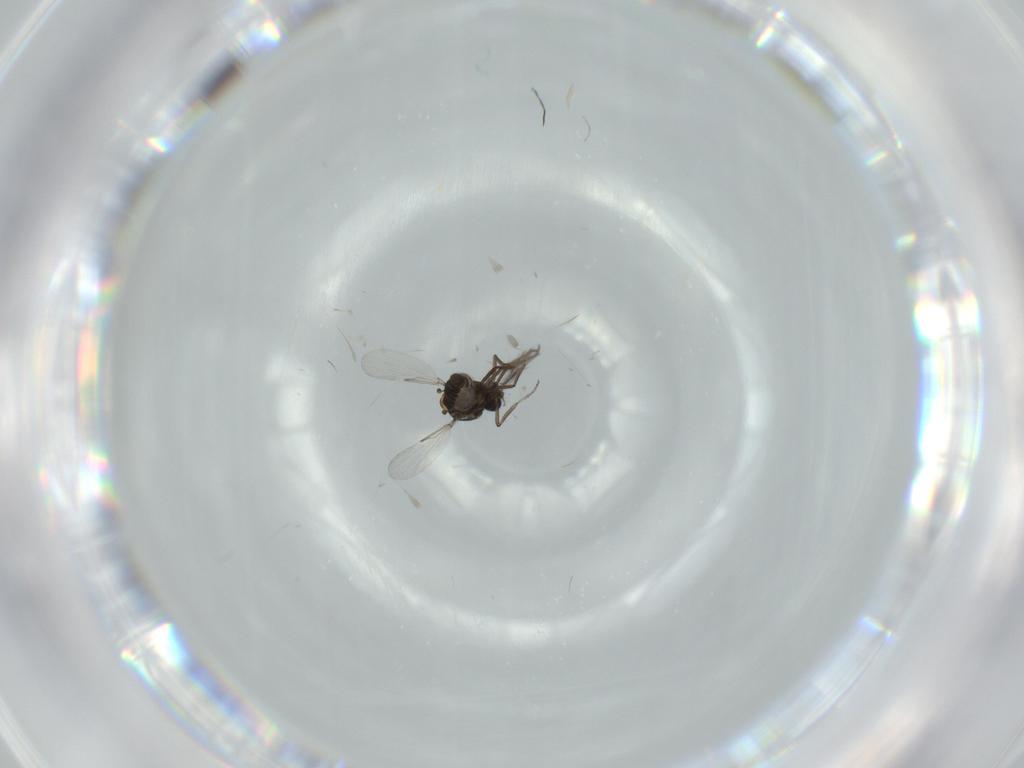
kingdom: Animalia
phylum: Arthropoda
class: Insecta
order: Diptera
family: Ceratopogonidae
